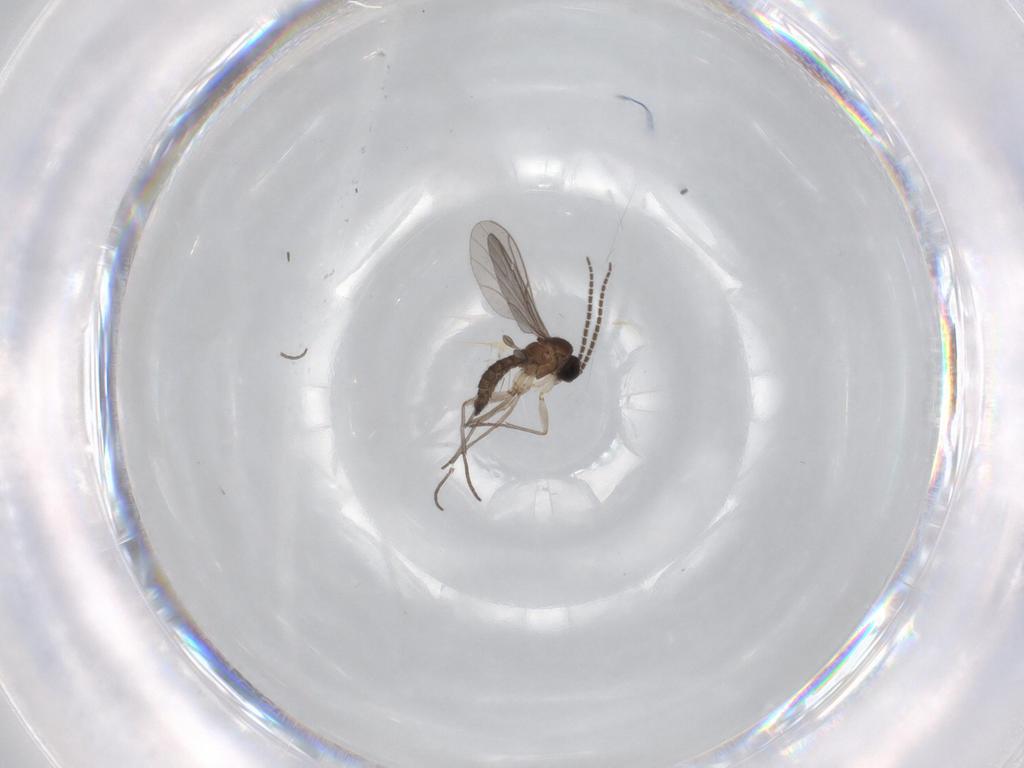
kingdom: Animalia
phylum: Arthropoda
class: Insecta
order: Diptera
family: Sciaridae
